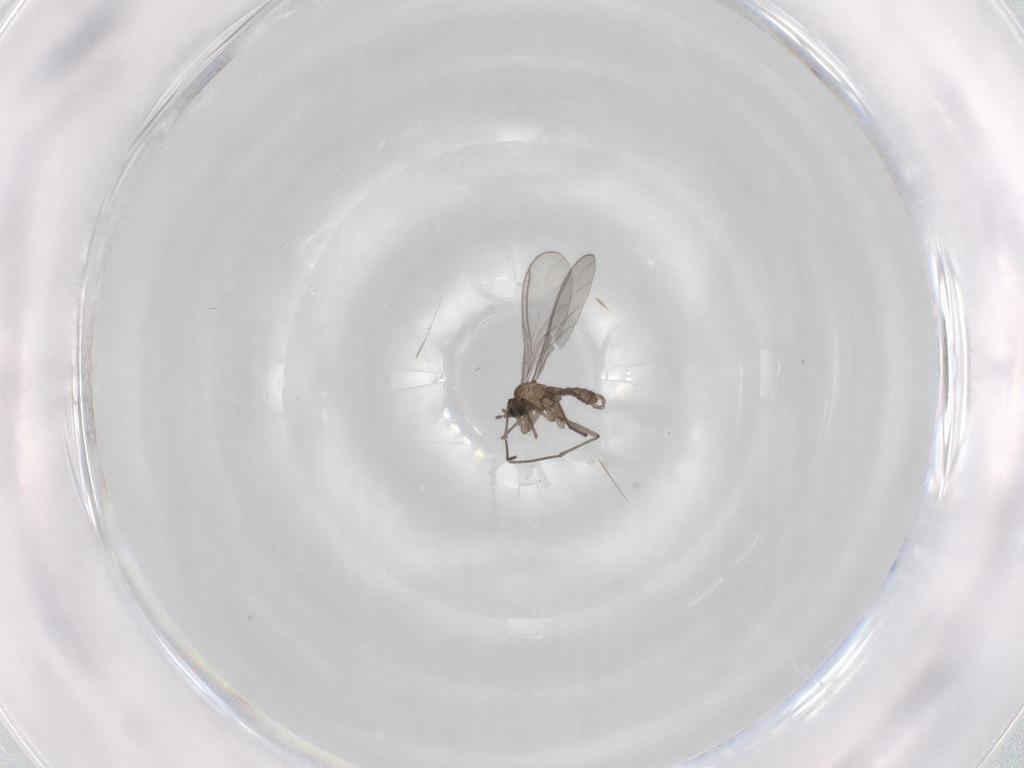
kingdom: Animalia
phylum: Arthropoda
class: Insecta
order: Diptera
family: Sciaridae
